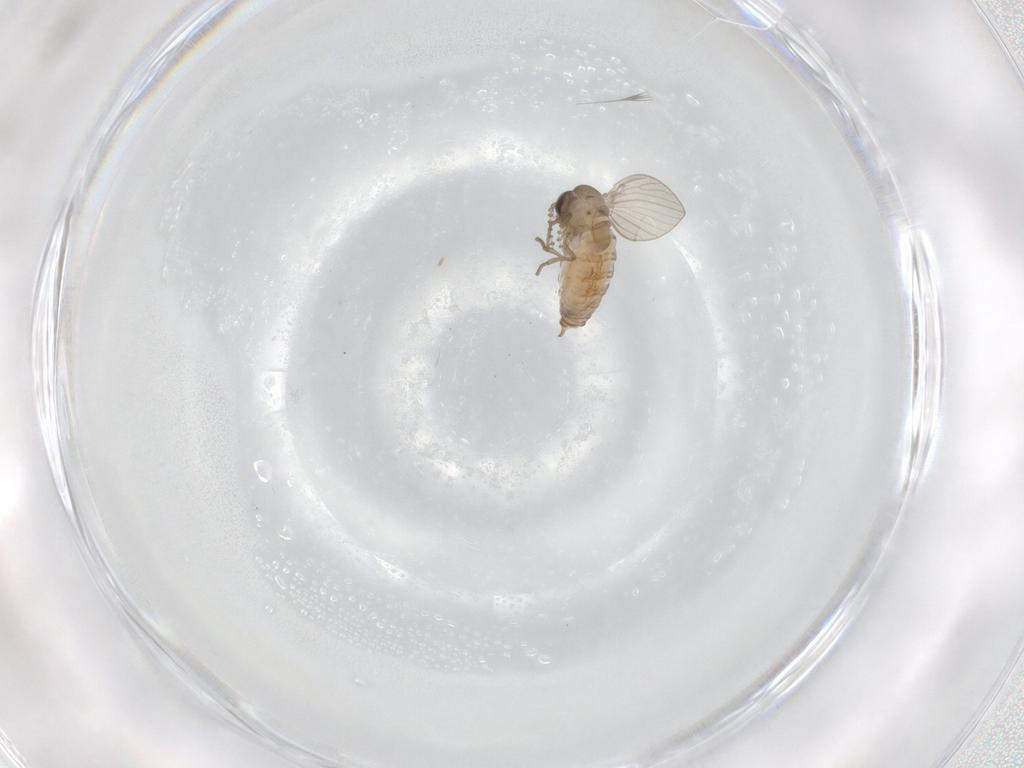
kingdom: Animalia
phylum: Arthropoda
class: Insecta
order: Diptera
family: Psychodidae
